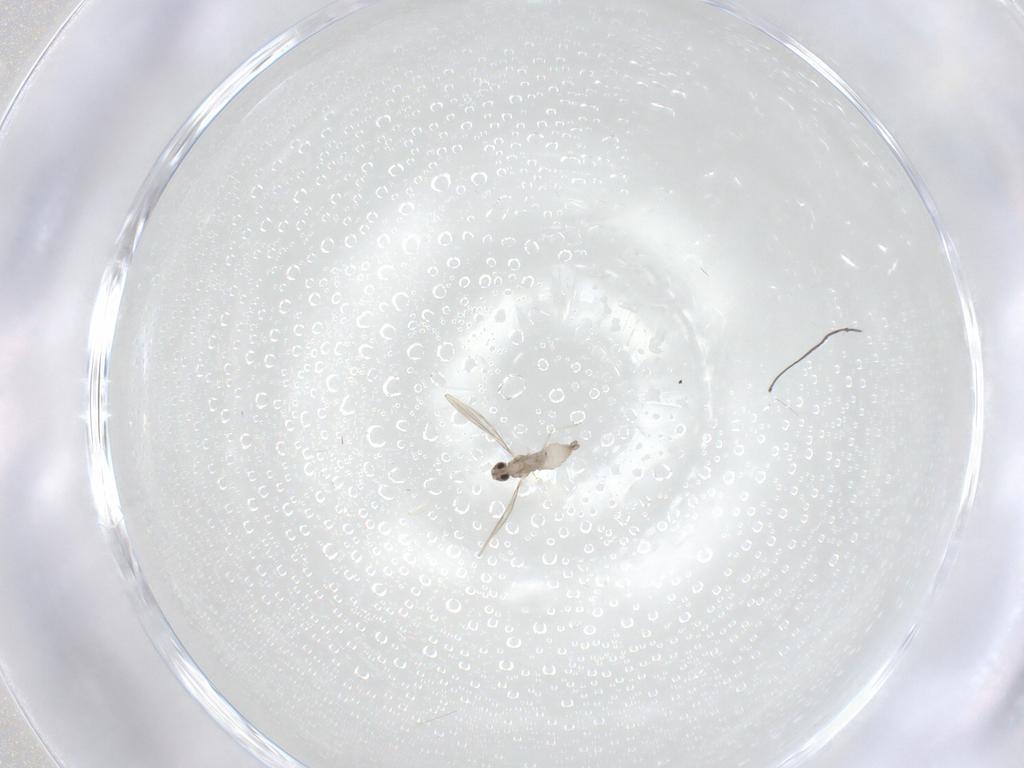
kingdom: Animalia
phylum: Arthropoda
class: Insecta
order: Diptera
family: Cecidomyiidae
